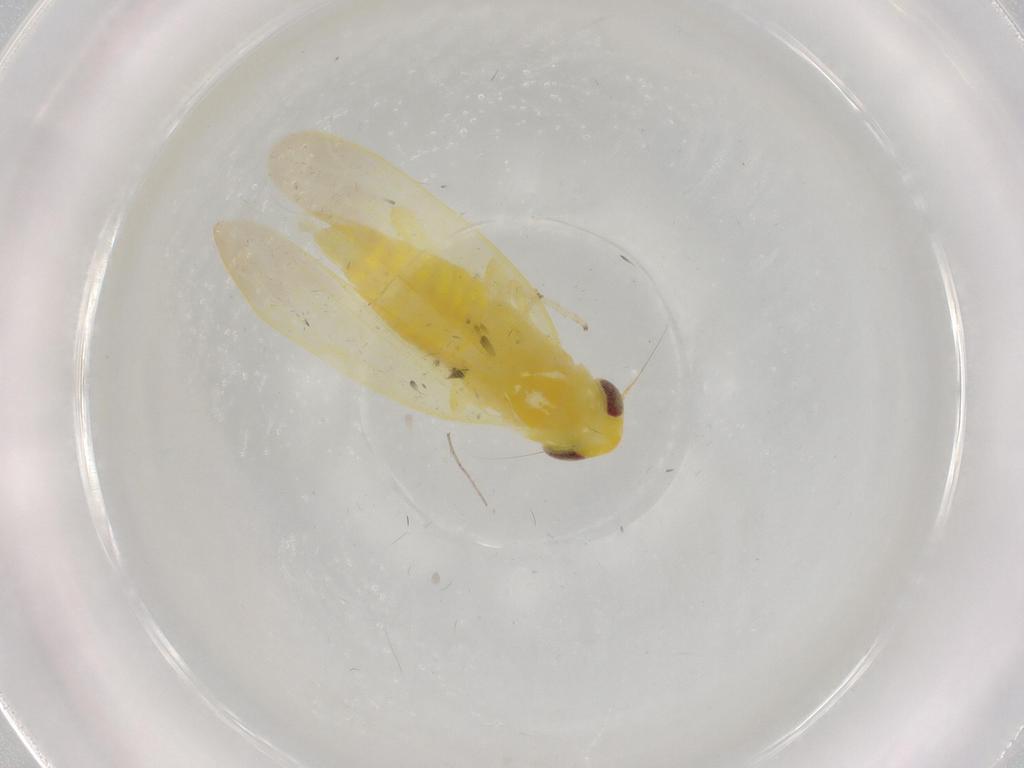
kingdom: Animalia
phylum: Arthropoda
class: Insecta
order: Hemiptera
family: Cicadellidae
